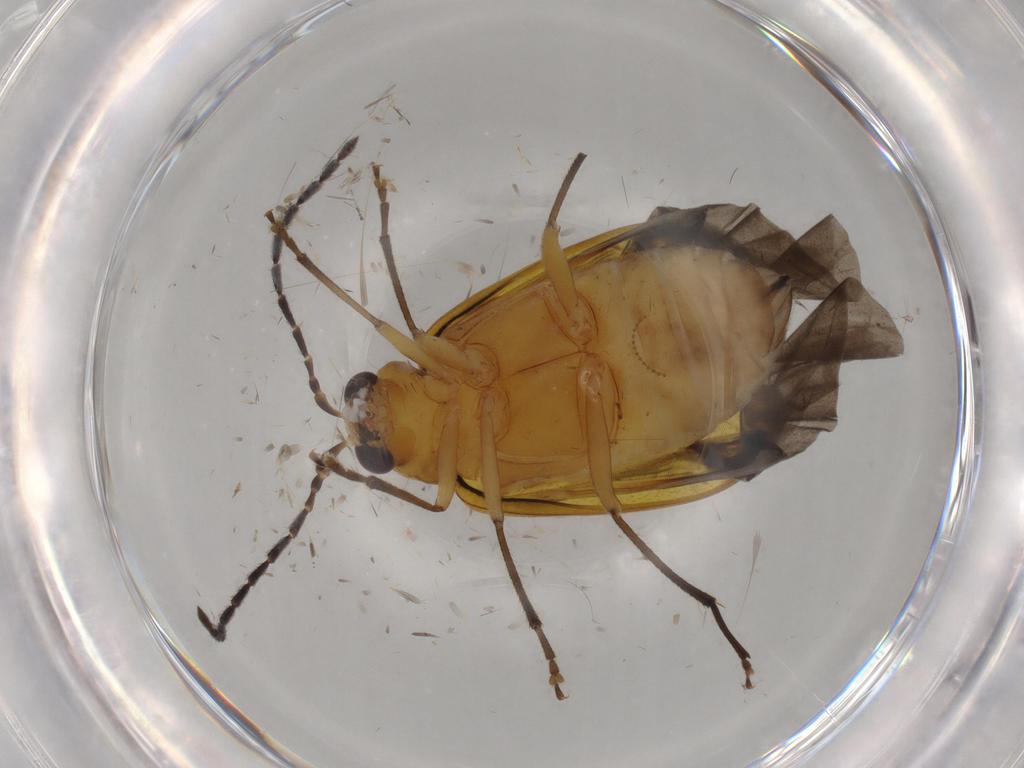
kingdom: Animalia
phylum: Arthropoda
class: Insecta
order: Coleoptera
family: Chrysomelidae
